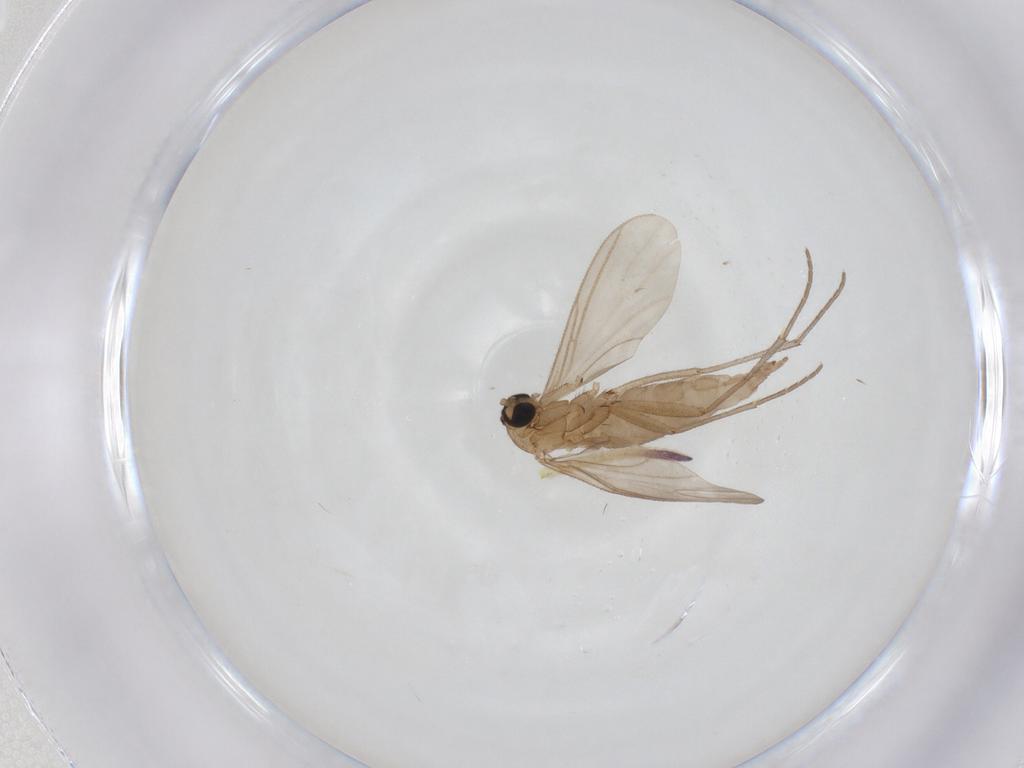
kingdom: Animalia
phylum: Arthropoda
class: Insecta
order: Diptera
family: Sciaridae
